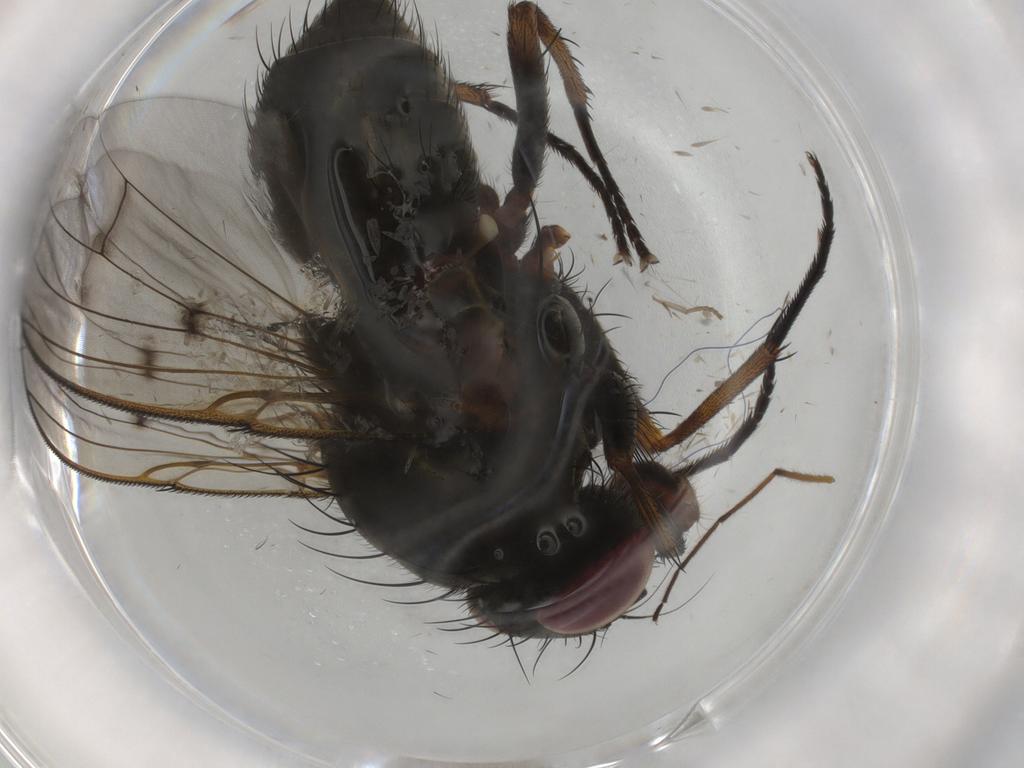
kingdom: Animalia
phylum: Arthropoda
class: Insecta
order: Diptera
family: Muscidae
